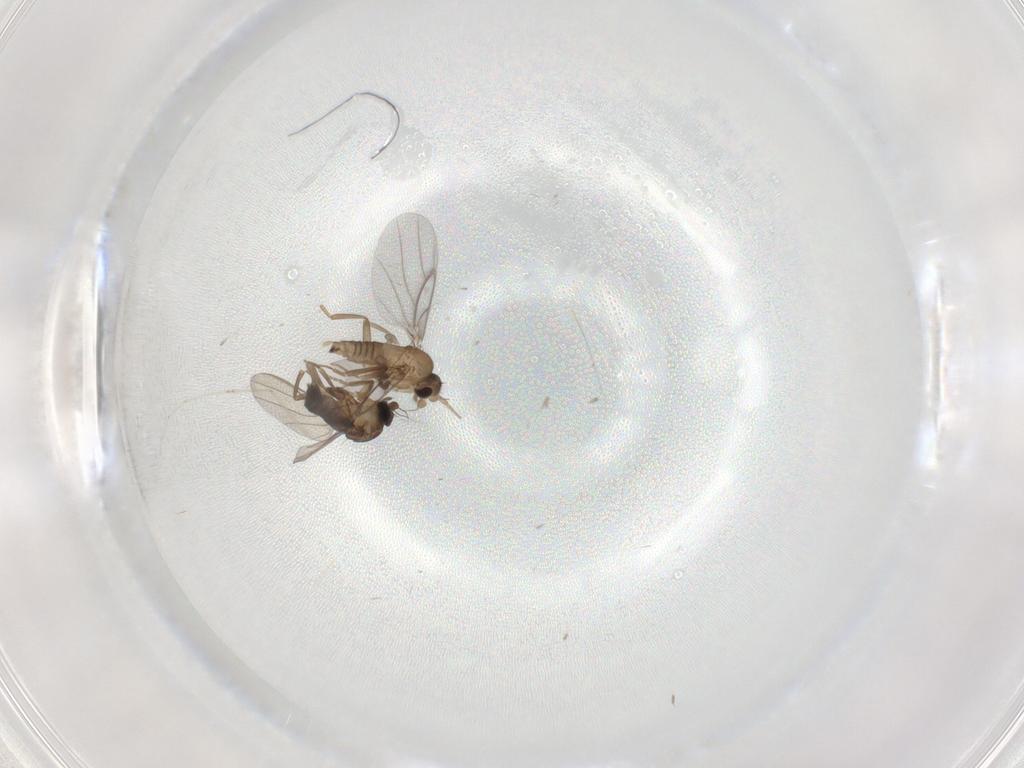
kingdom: Animalia
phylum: Arthropoda
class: Insecta
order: Diptera
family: Phoridae
